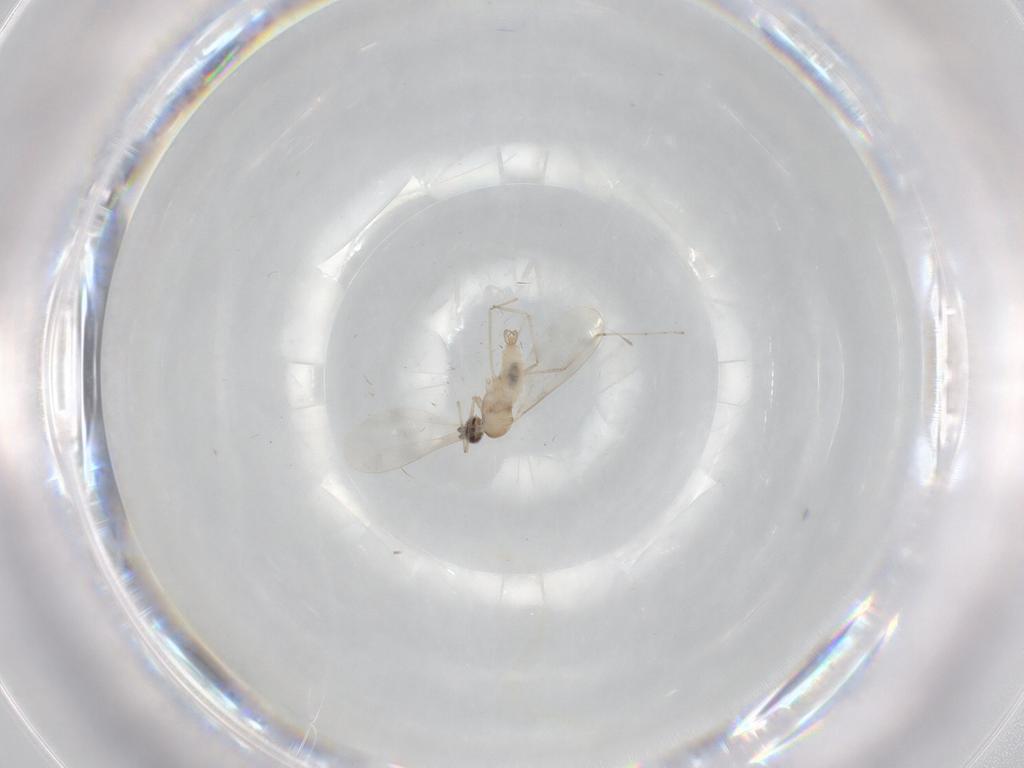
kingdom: Animalia
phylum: Arthropoda
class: Insecta
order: Diptera
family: Cecidomyiidae
